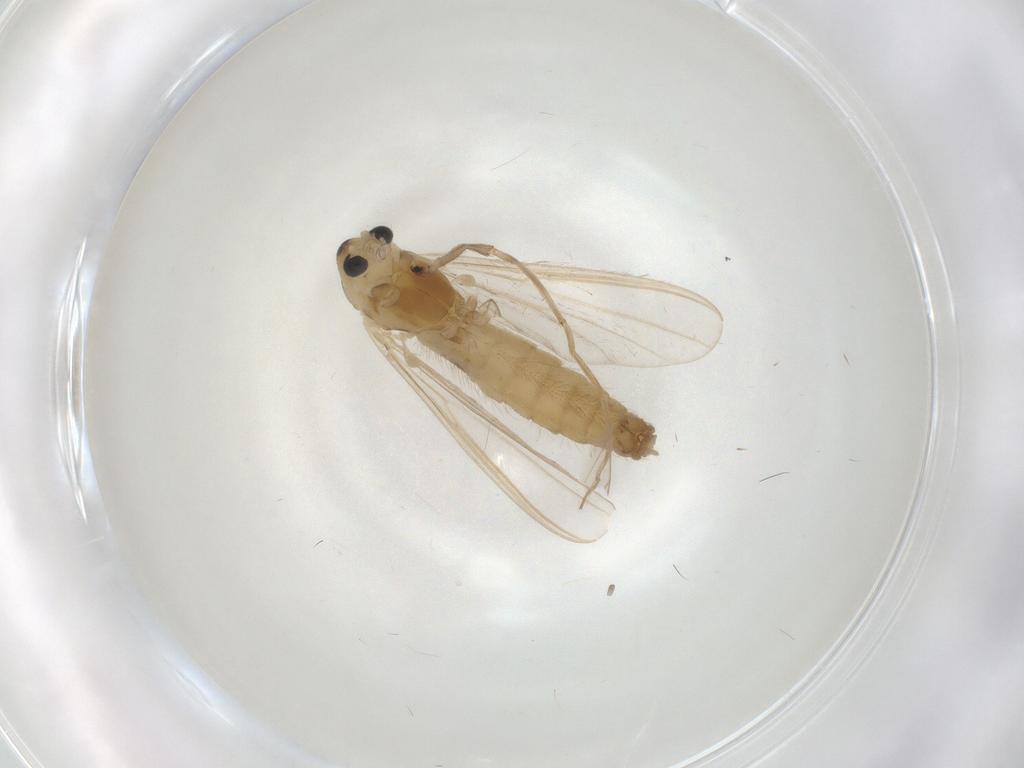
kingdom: Animalia
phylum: Arthropoda
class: Insecta
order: Diptera
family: Chironomidae
